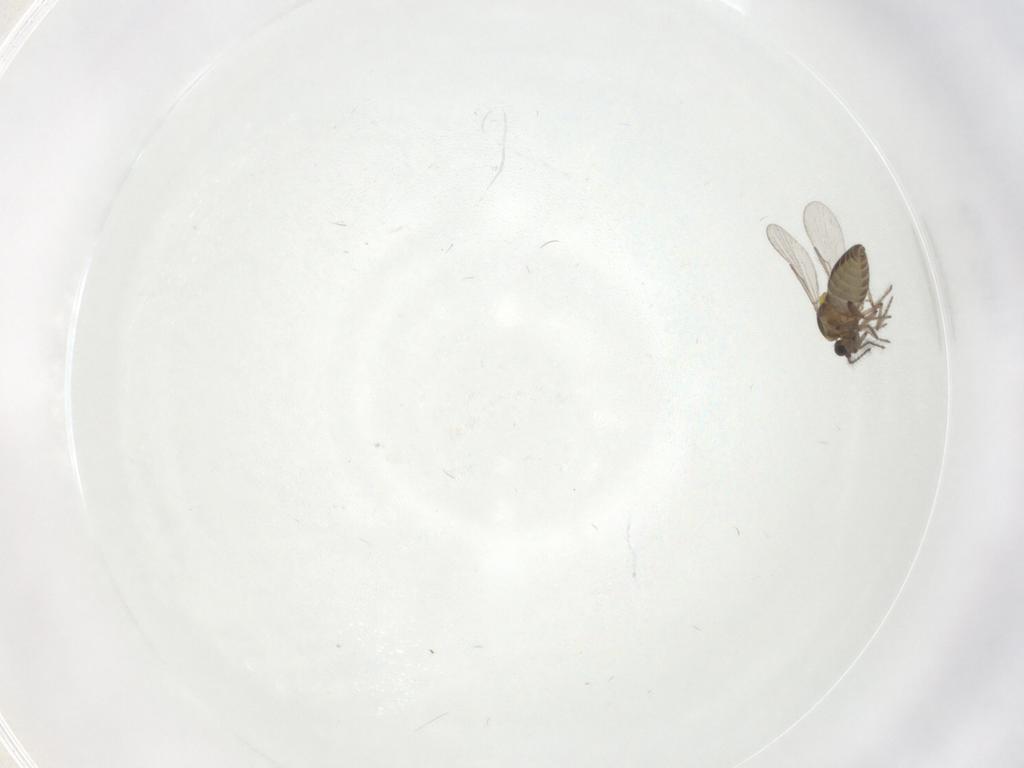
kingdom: Animalia
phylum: Arthropoda
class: Insecta
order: Diptera
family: Ceratopogonidae
